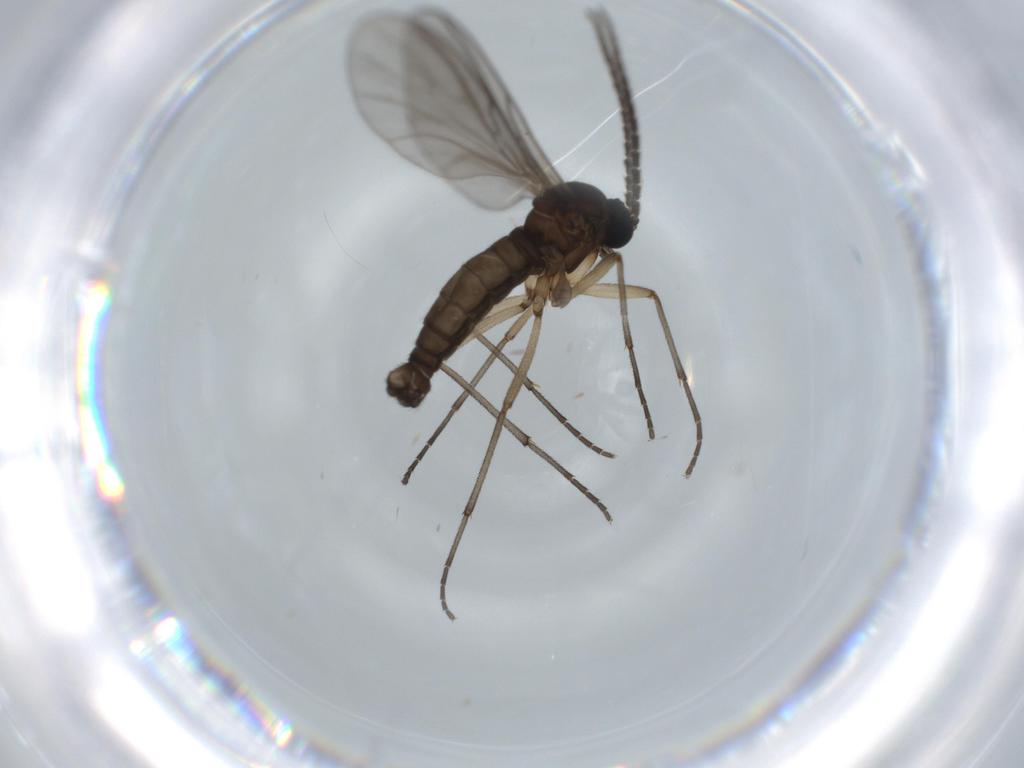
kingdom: Animalia
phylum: Arthropoda
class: Insecta
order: Diptera
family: Sciaridae
